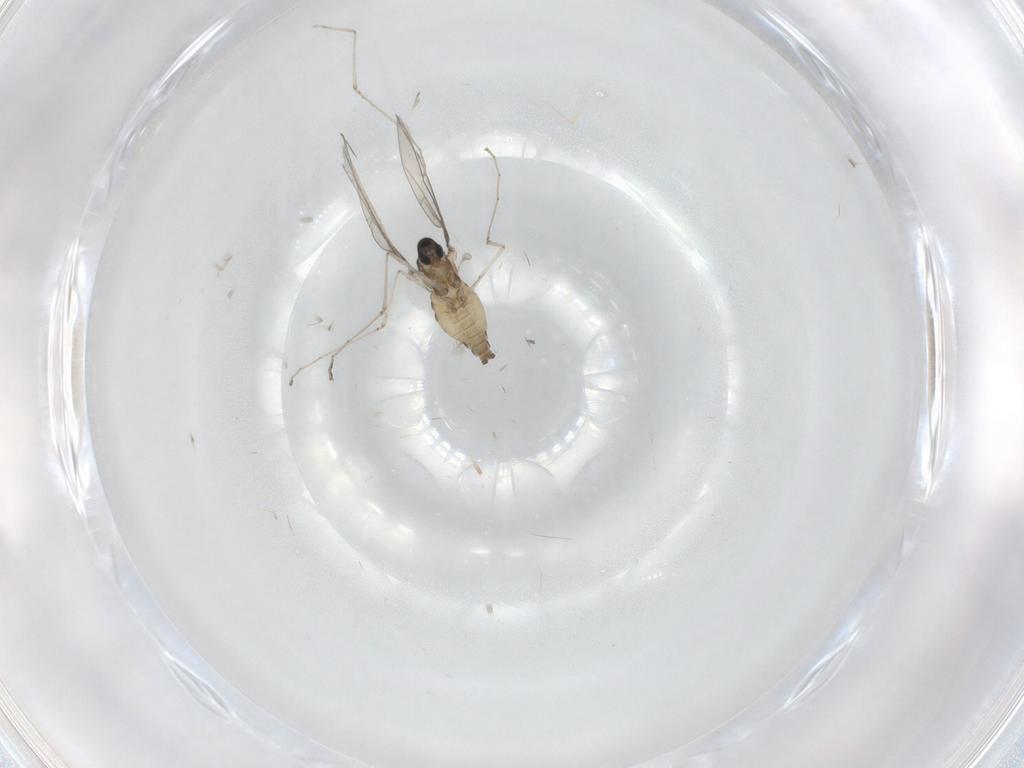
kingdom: Animalia
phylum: Arthropoda
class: Insecta
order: Diptera
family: Cecidomyiidae
